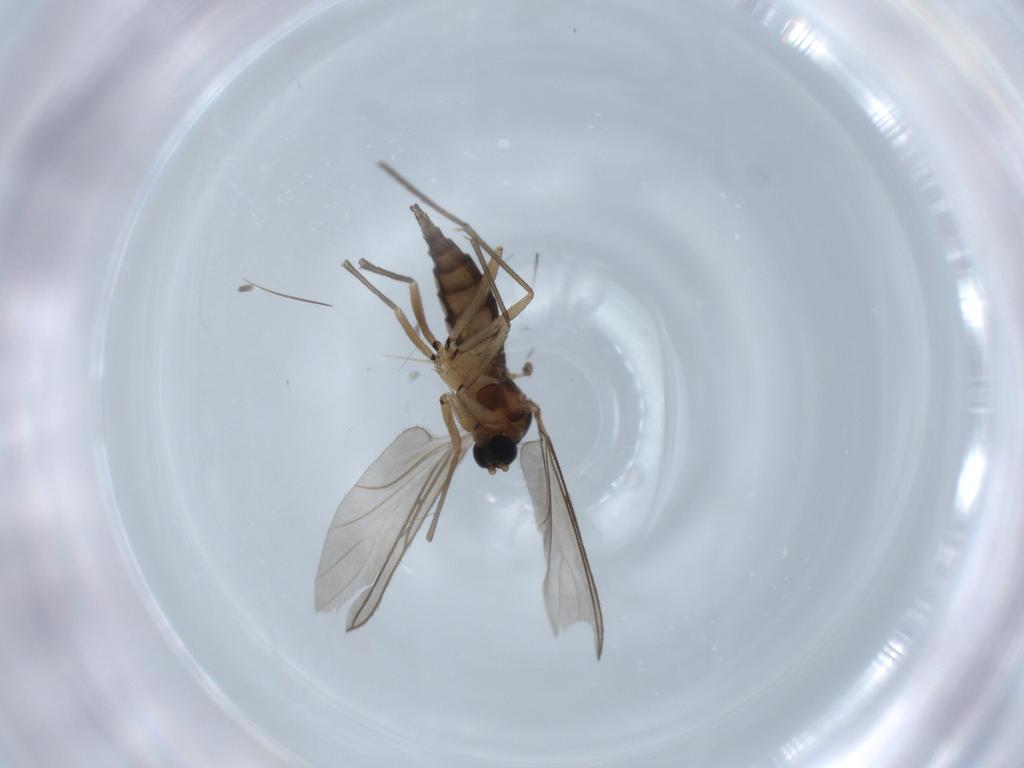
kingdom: Animalia
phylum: Arthropoda
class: Insecta
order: Diptera
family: Sciaridae
